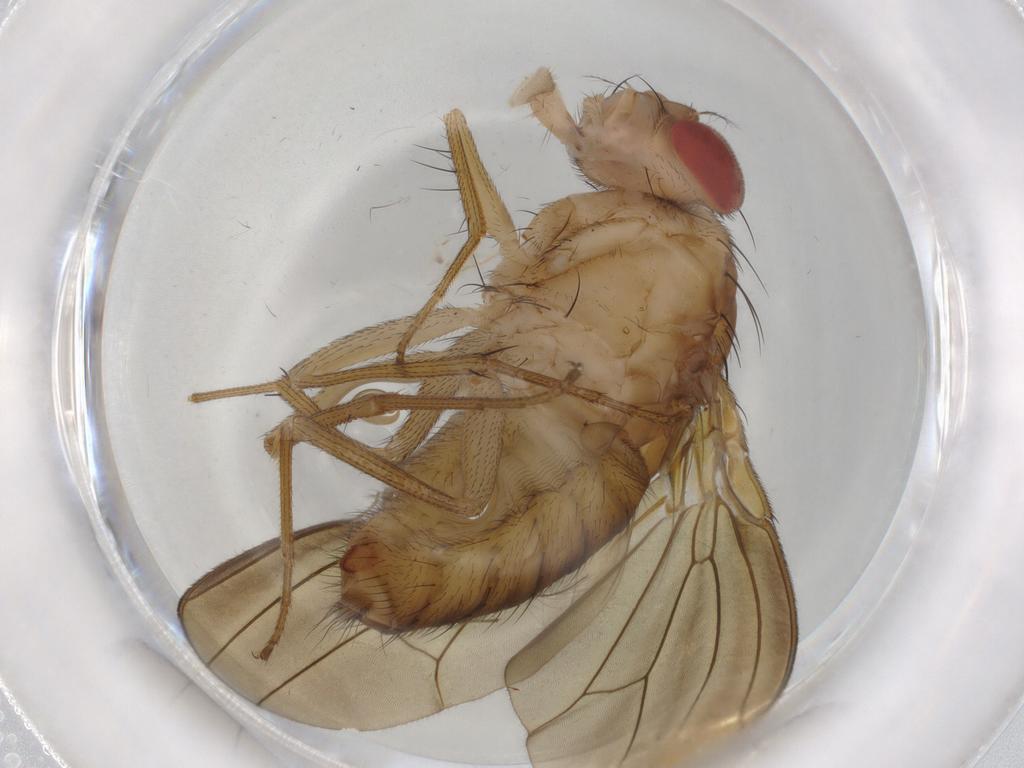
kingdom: Animalia
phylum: Arthropoda
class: Insecta
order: Diptera
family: Drosophilidae
